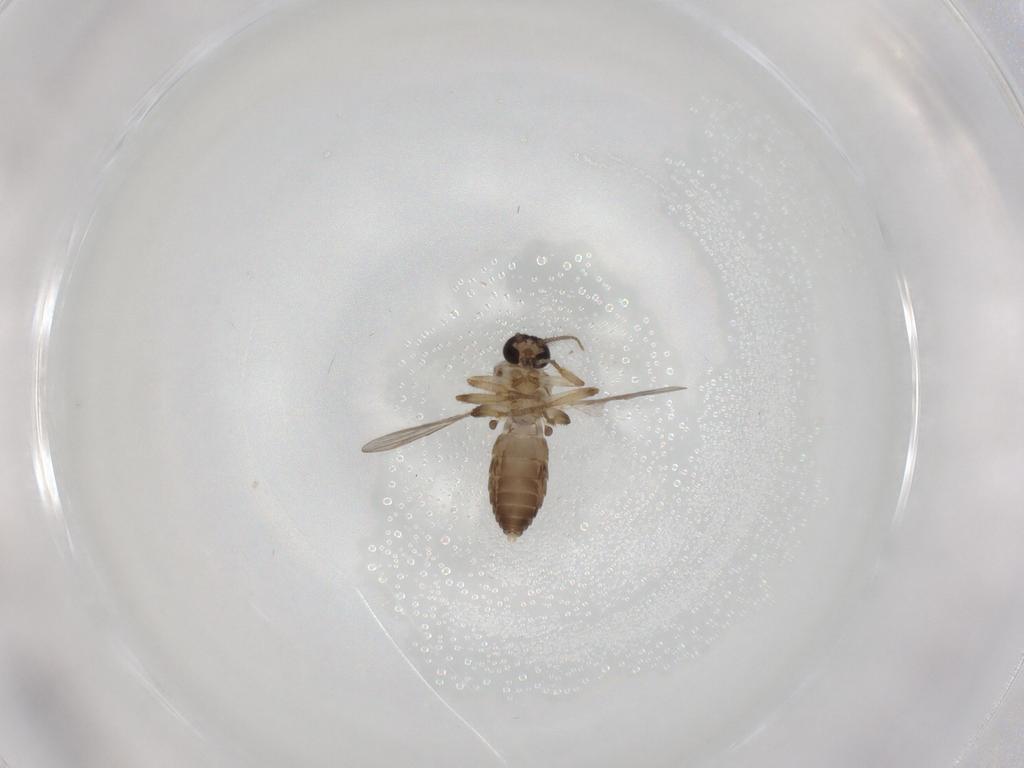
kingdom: Animalia
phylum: Arthropoda
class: Insecta
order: Diptera
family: Ceratopogonidae
